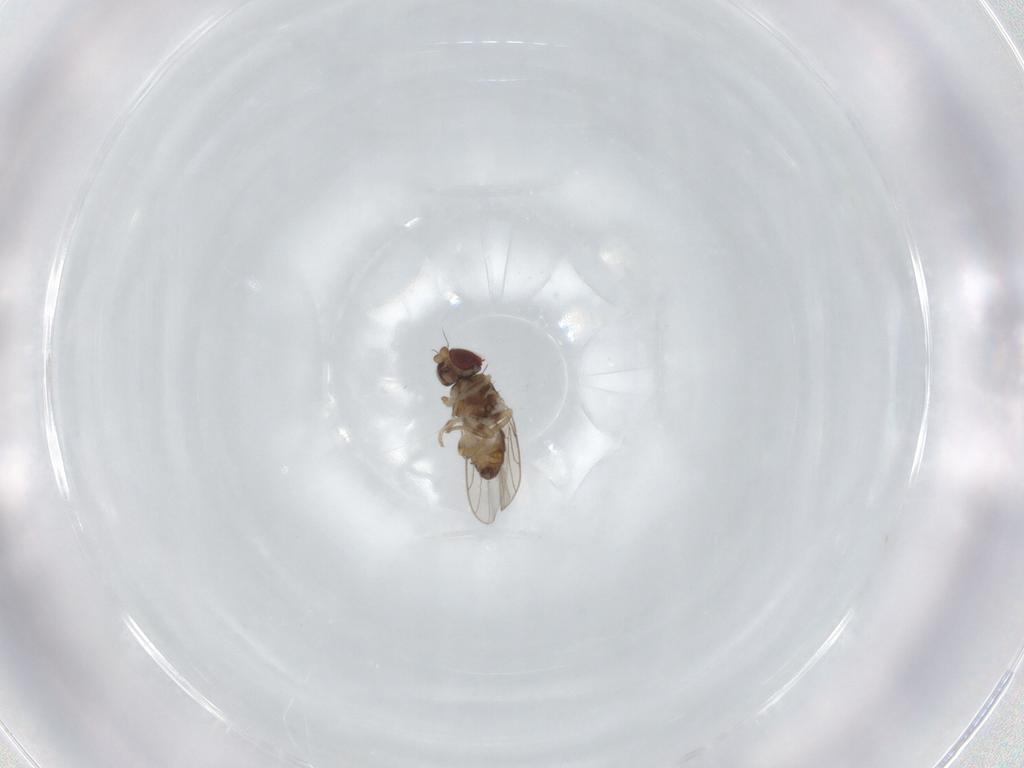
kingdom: Animalia
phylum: Arthropoda
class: Insecta
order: Diptera
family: Chloropidae
